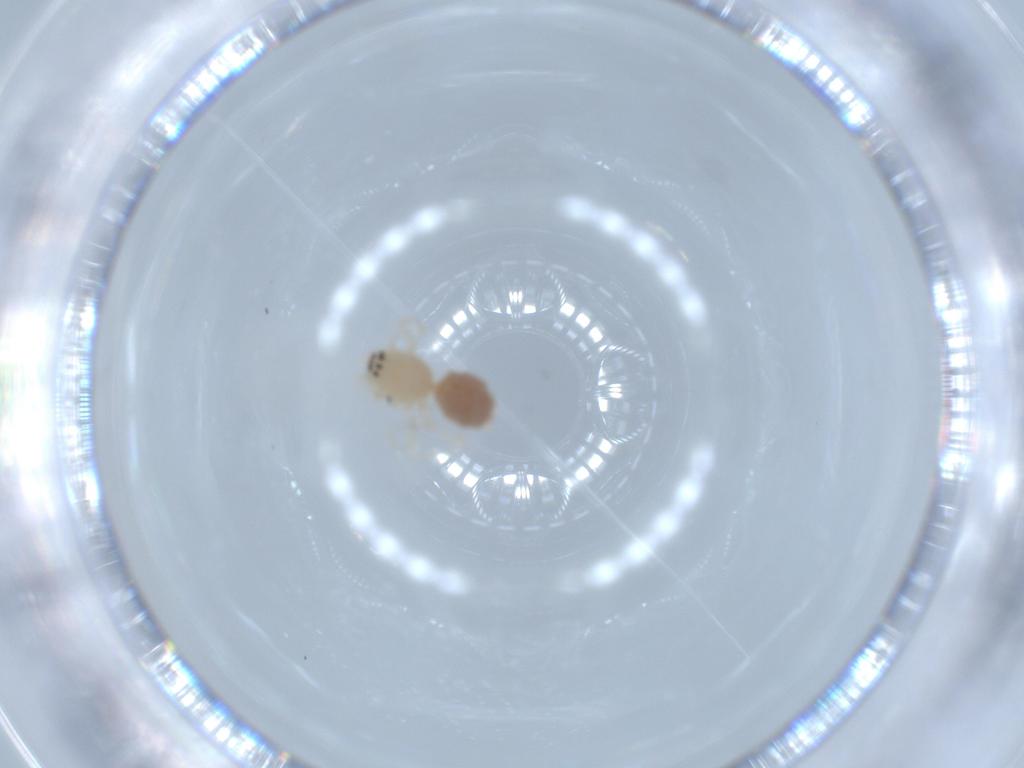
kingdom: Animalia
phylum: Arthropoda
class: Arachnida
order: Araneae
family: Anyphaenidae
